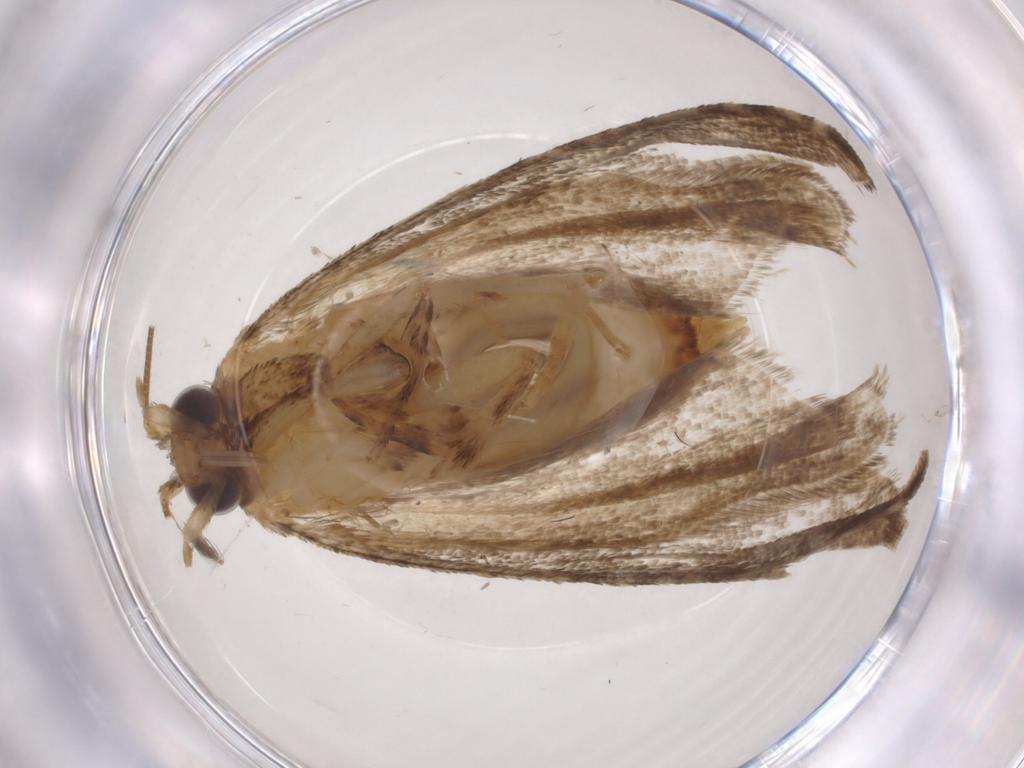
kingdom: Animalia
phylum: Arthropoda
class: Insecta
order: Lepidoptera
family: Tortricidae
